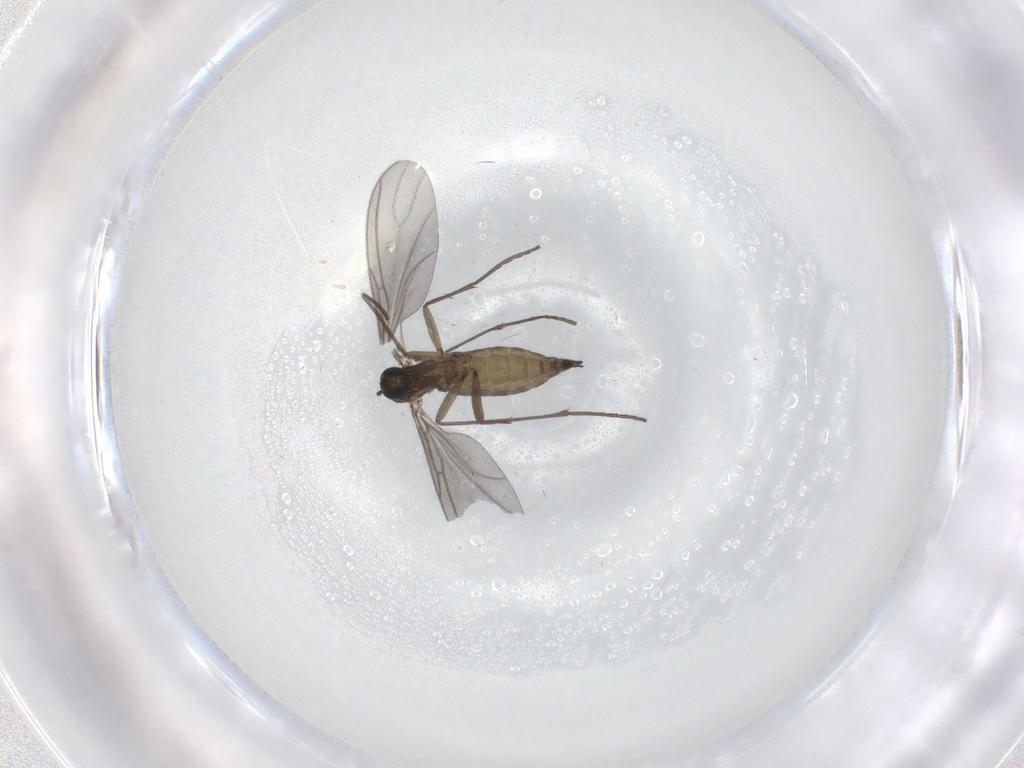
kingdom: Animalia
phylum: Arthropoda
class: Insecta
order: Diptera
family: Sciaridae
